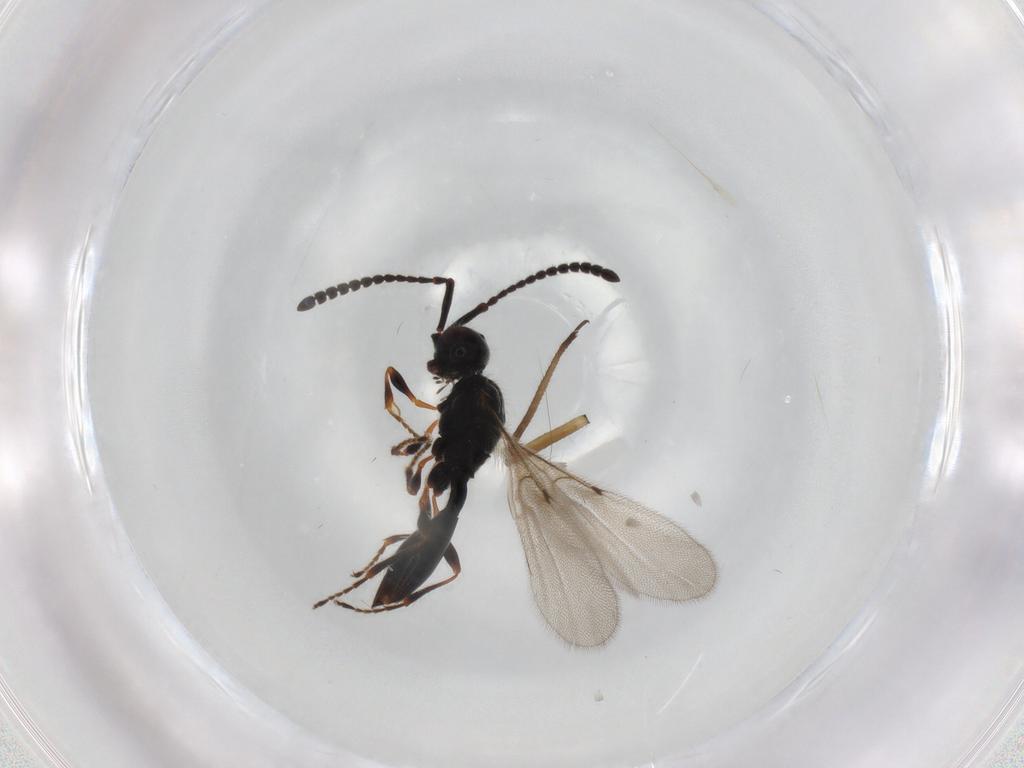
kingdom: Animalia
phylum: Arthropoda
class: Insecta
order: Hymenoptera
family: Diapriidae
